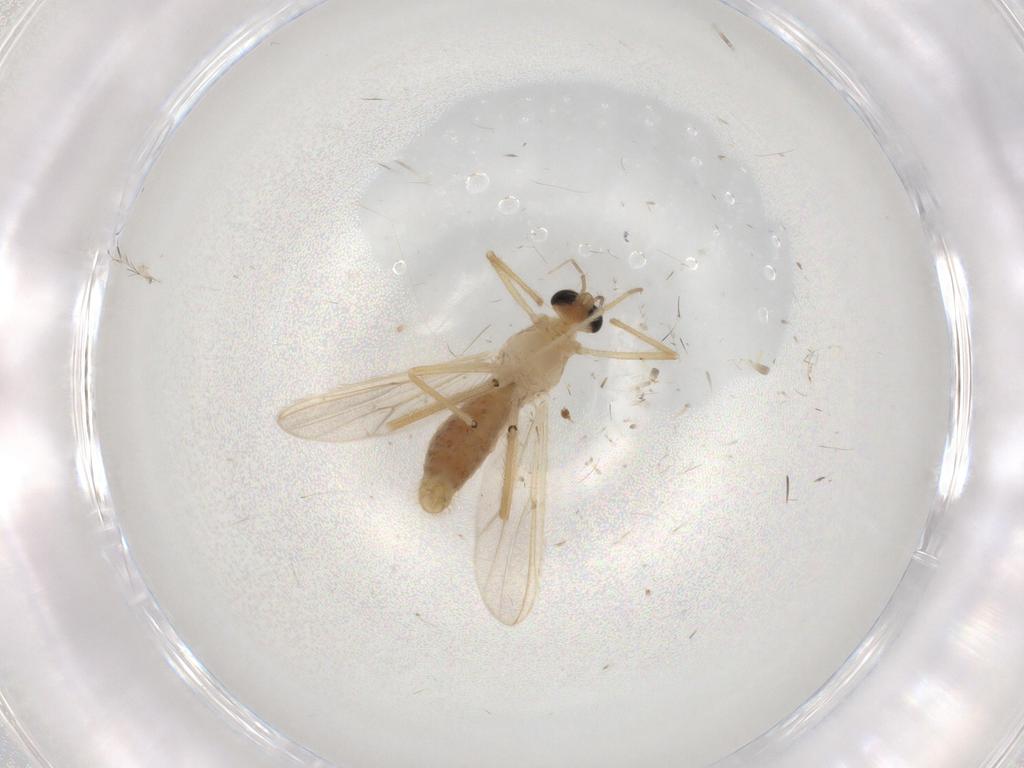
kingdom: Animalia
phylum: Arthropoda
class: Insecta
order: Diptera
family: Chironomidae
